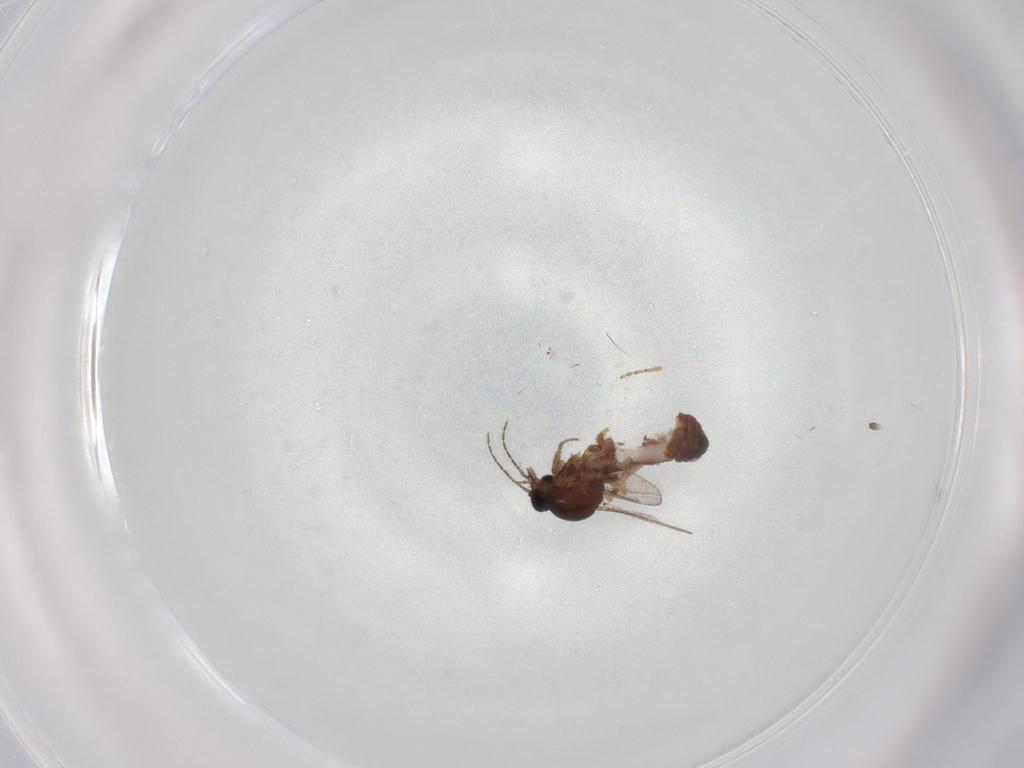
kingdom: Animalia
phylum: Arthropoda
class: Insecta
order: Diptera
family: Ceratopogonidae
